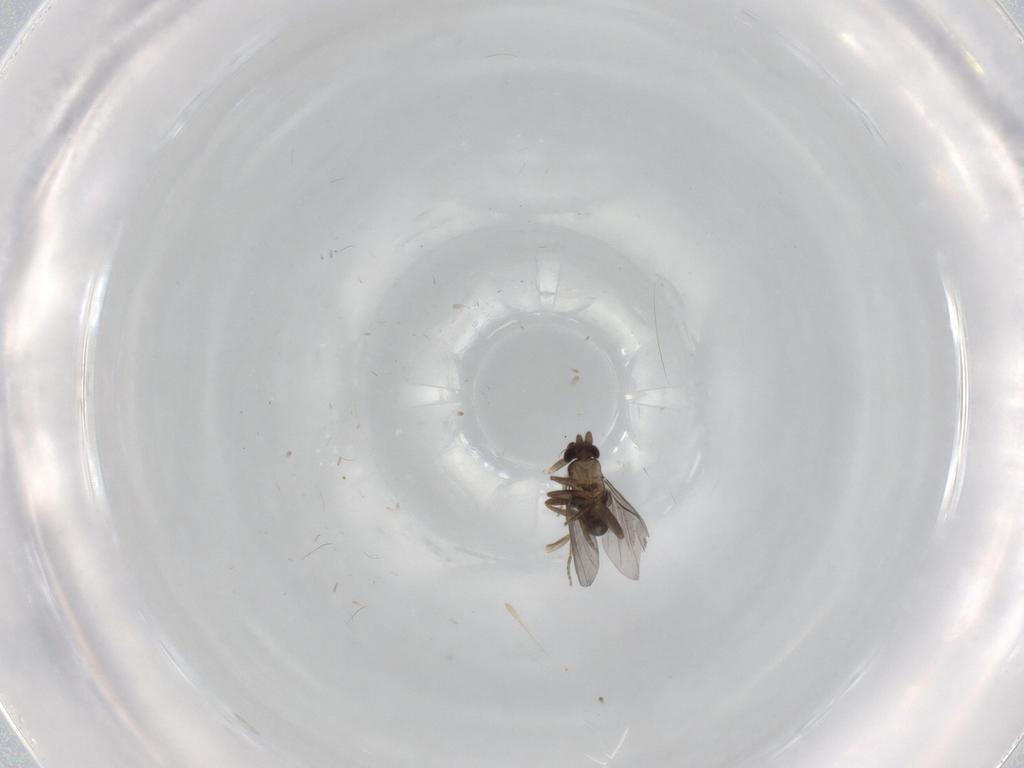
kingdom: Animalia
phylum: Arthropoda
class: Insecta
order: Diptera
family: Phoridae
